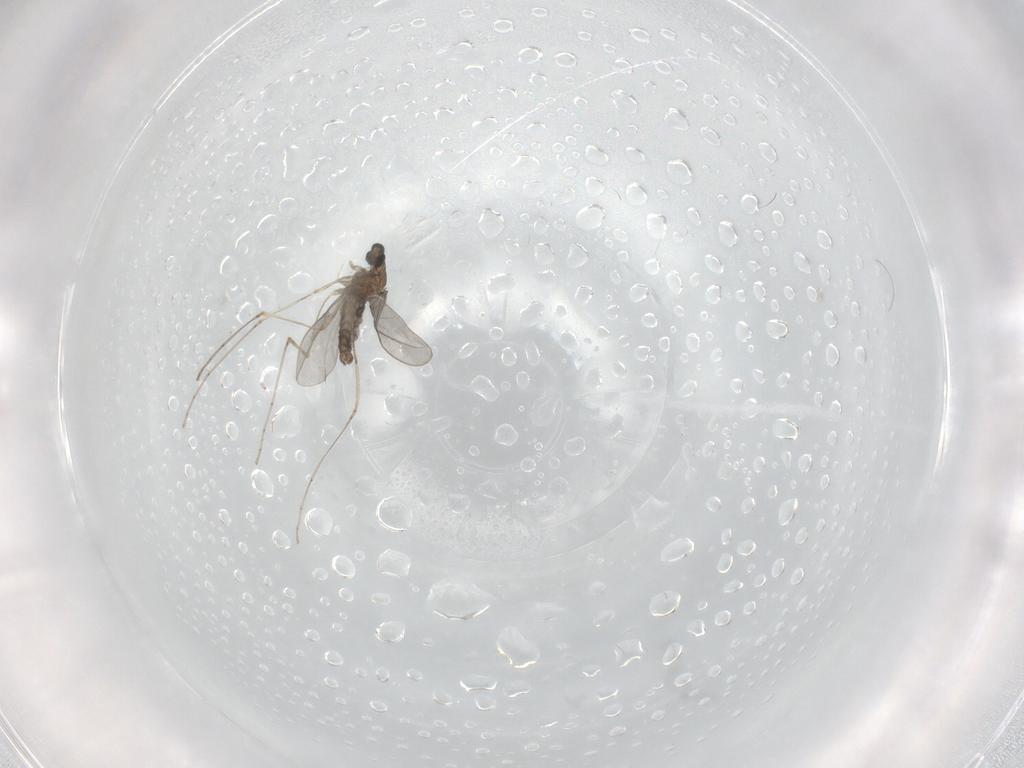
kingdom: Animalia
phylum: Arthropoda
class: Insecta
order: Diptera
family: Cecidomyiidae
